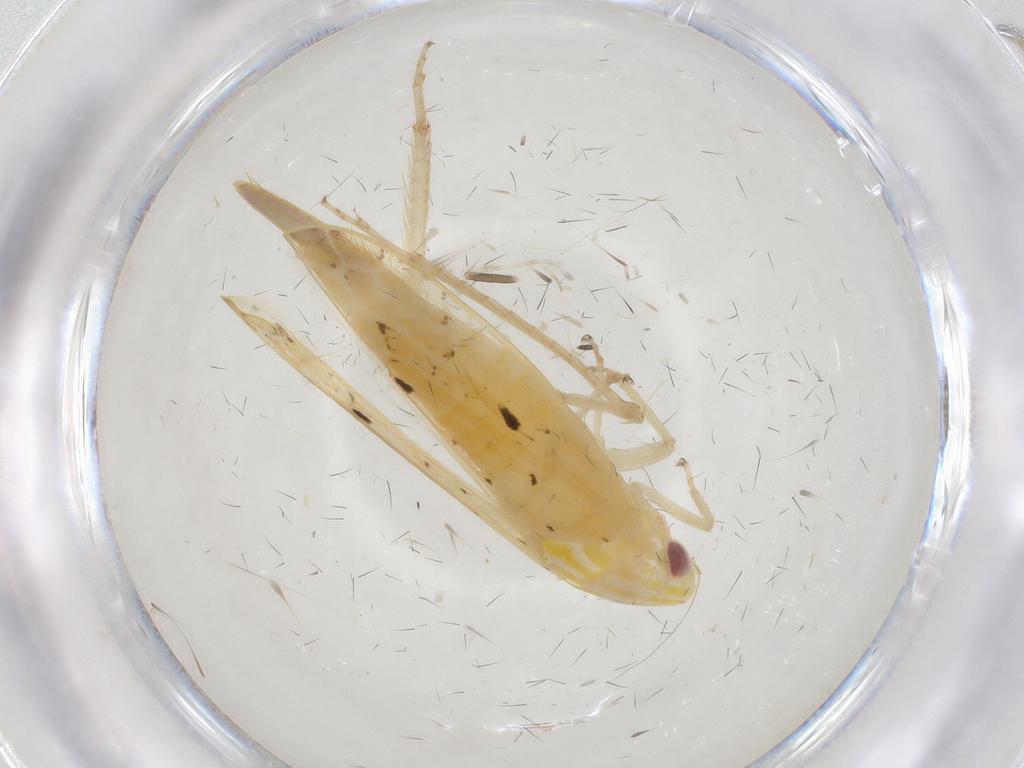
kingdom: Animalia
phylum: Arthropoda
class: Insecta
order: Hemiptera
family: Cicadellidae
